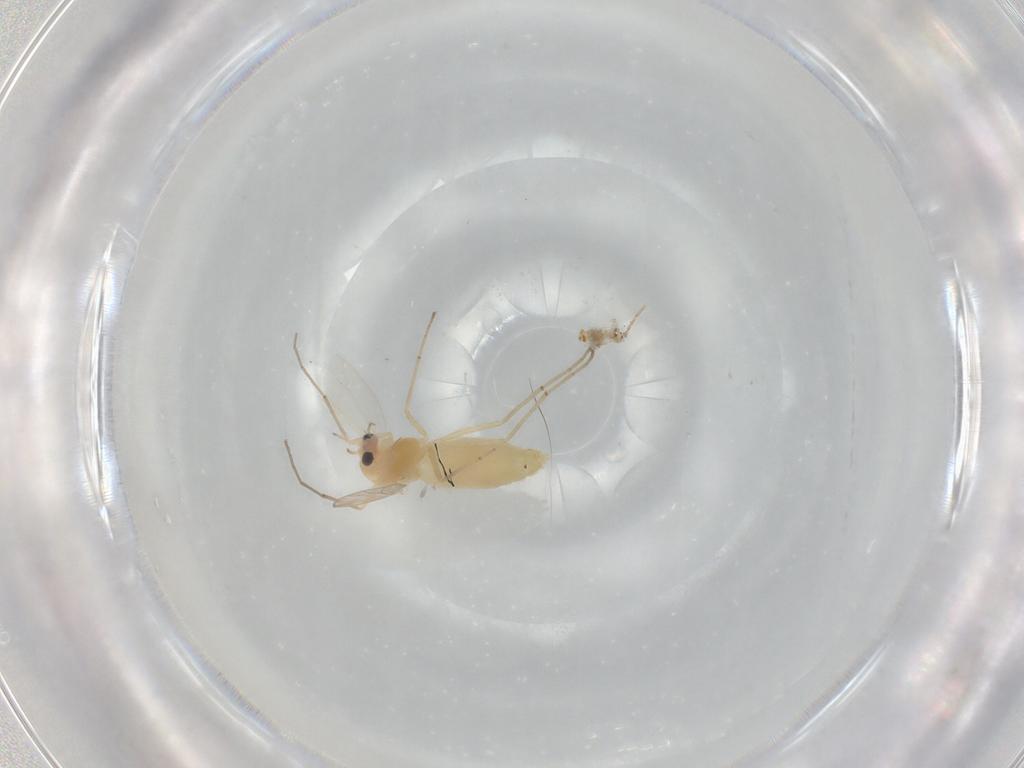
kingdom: Animalia
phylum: Arthropoda
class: Insecta
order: Diptera
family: Chironomidae
